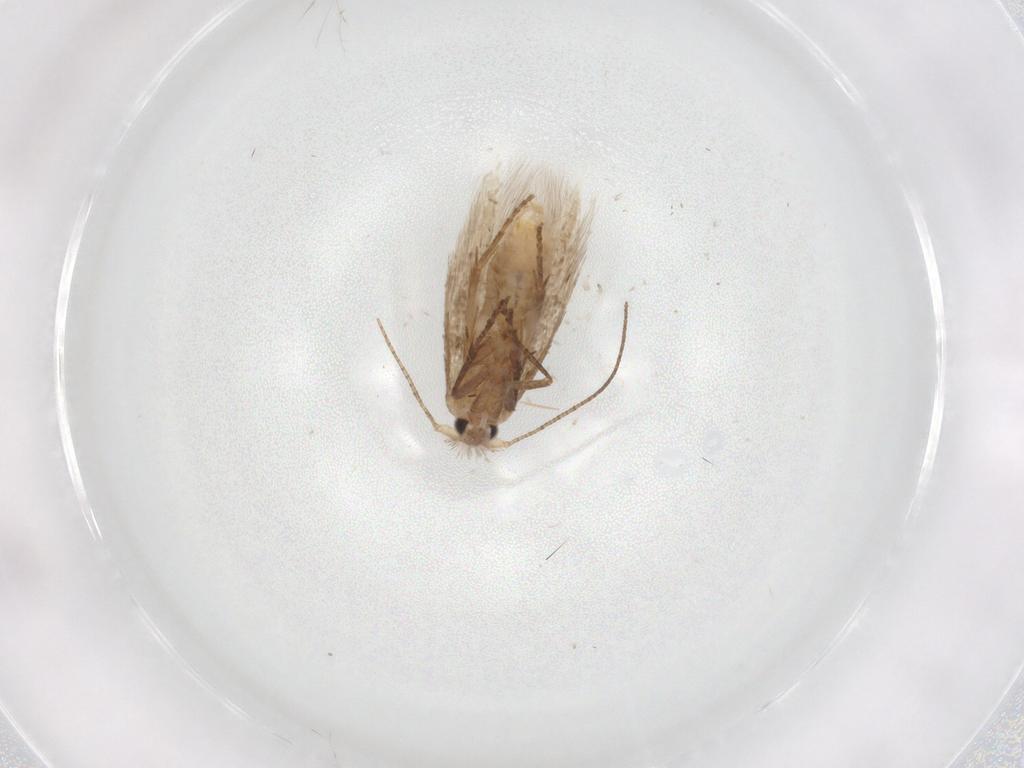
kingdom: Animalia
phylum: Arthropoda
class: Insecta
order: Lepidoptera
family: Bucculatricidae
